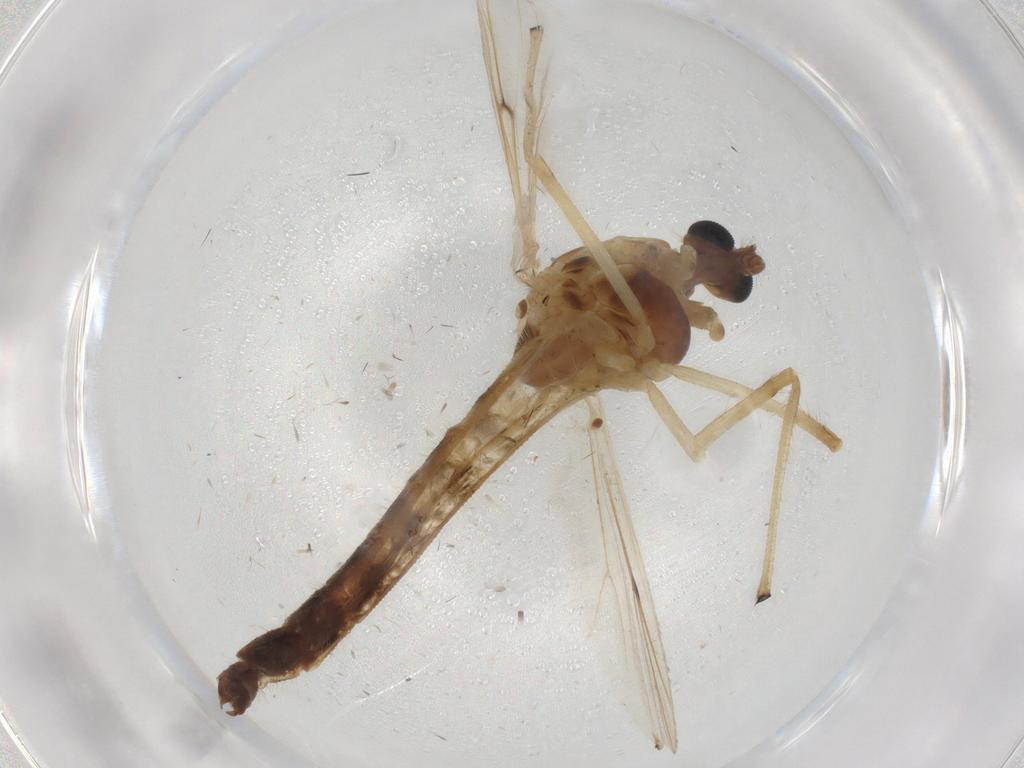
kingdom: Animalia
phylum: Arthropoda
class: Insecta
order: Diptera
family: Dolichopodidae
